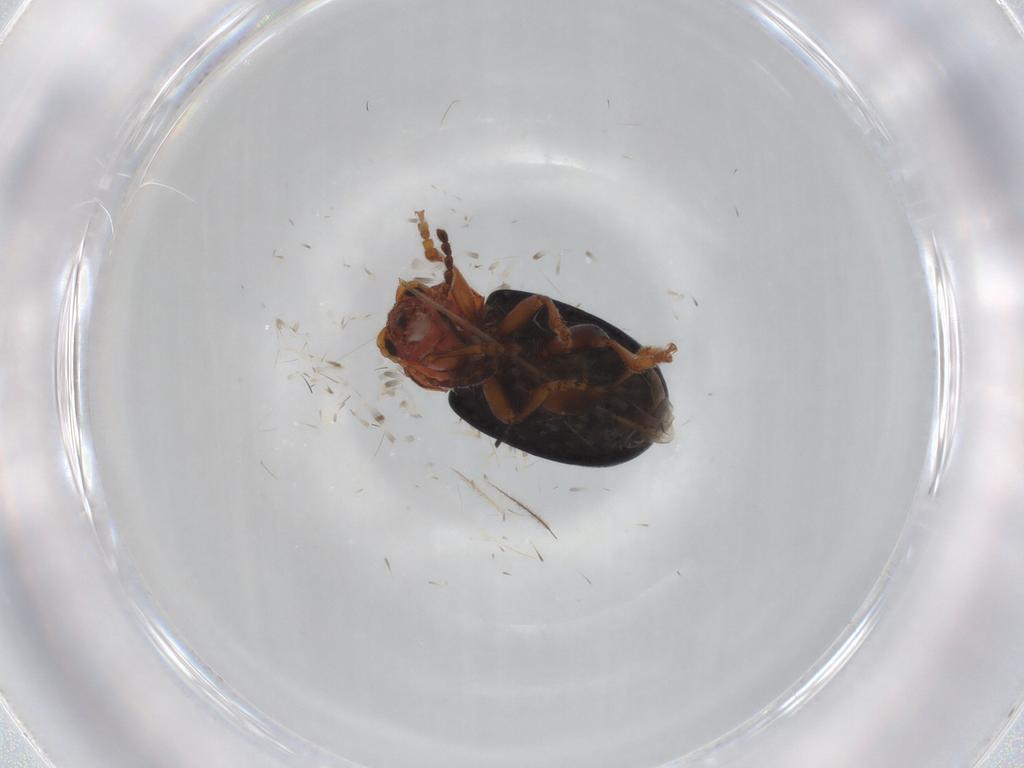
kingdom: Animalia
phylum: Arthropoda
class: Insecta
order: Coleoptera
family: Chrysomelidae
